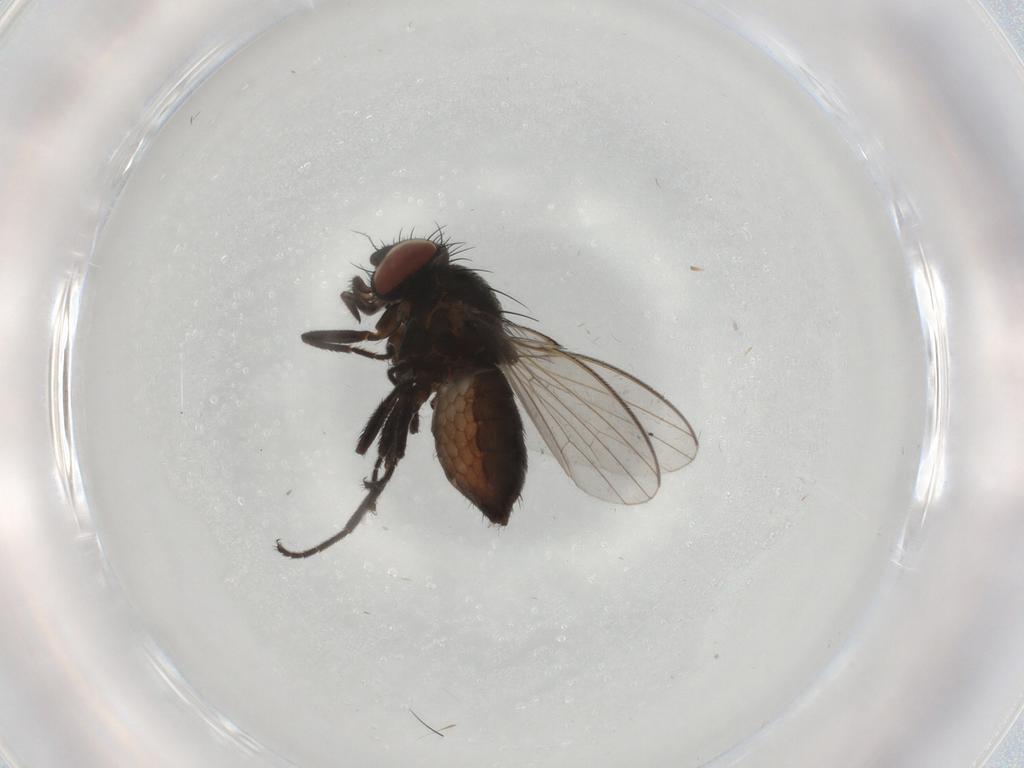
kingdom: Animalia
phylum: Arthropoda
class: Insecta
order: Diptera
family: Milichiidae
